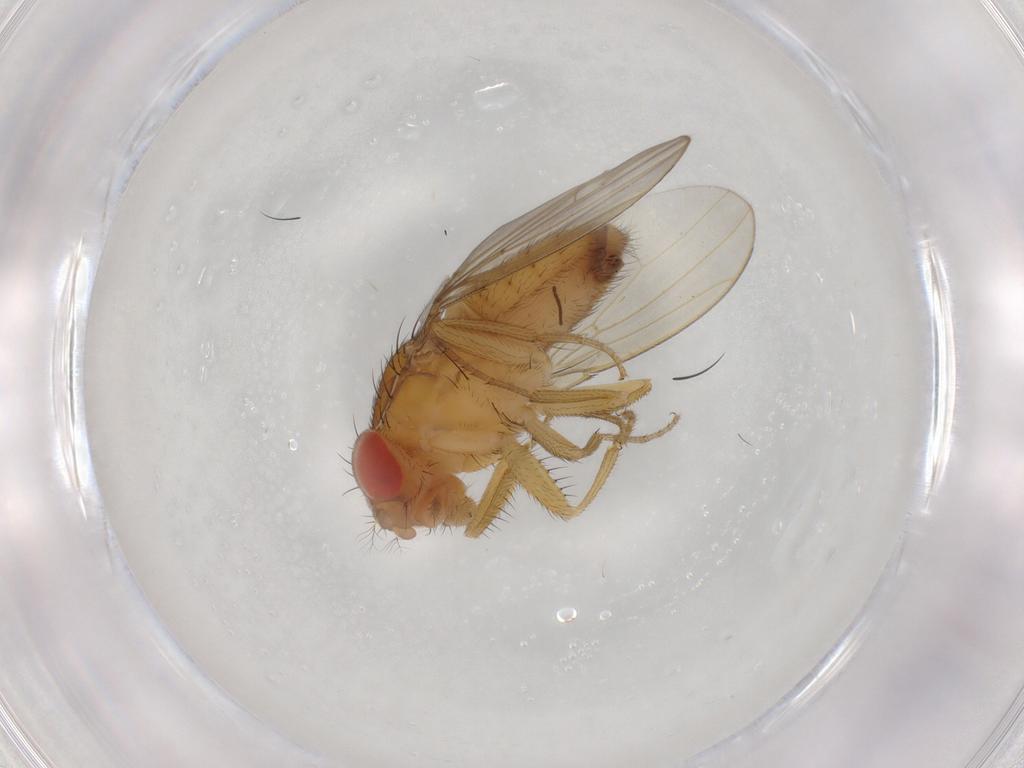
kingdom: Animalia
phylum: Arthropoda
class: Insecta
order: Diptera
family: Drosophilidae
